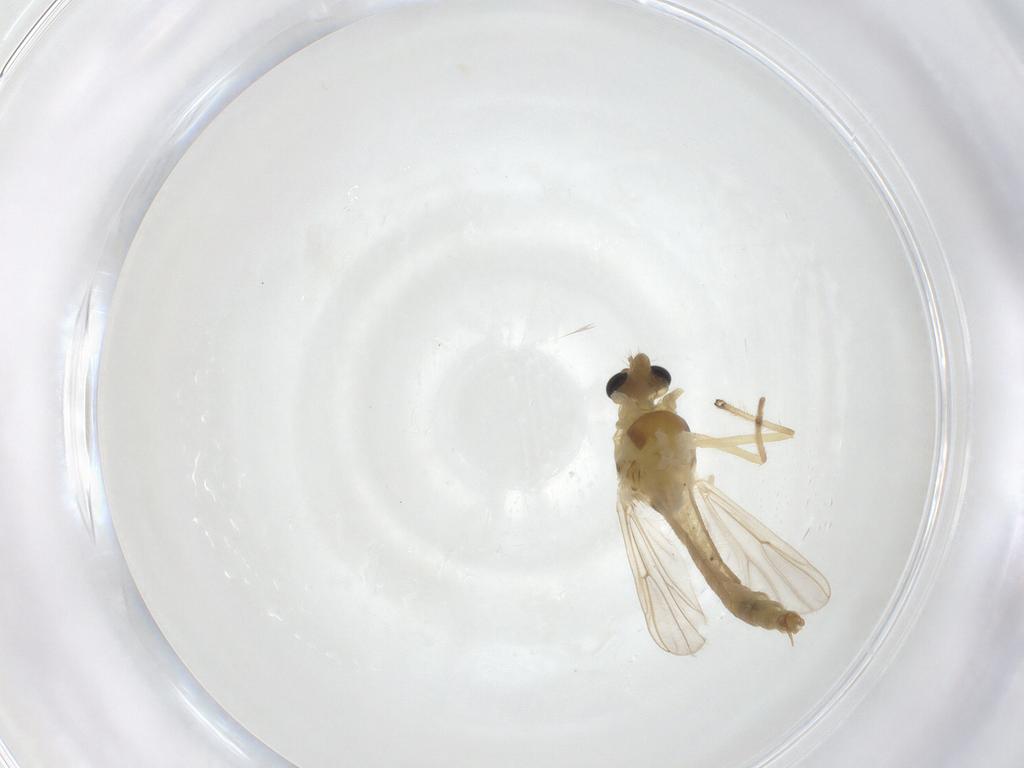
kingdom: Animalia
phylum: Arthropoda
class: Insecta
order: Diptera
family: Chironomidae
